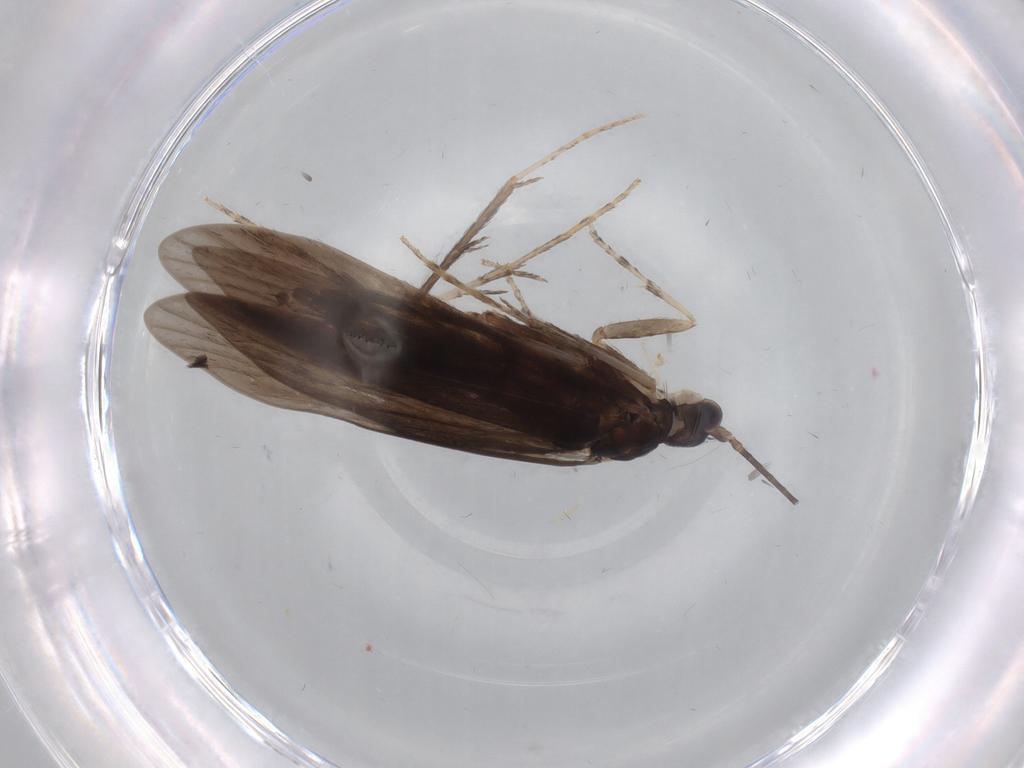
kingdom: Animalia
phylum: Arthropoda
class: Insecta
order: Trichoptera
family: Xiphocentronidae
